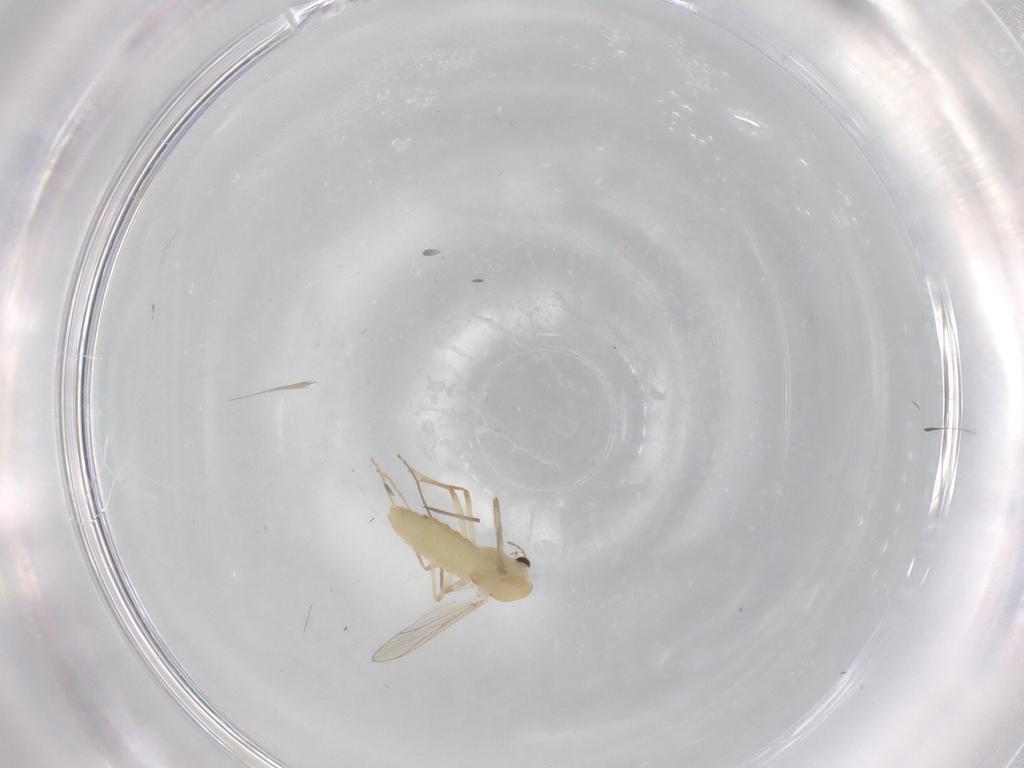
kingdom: Animalia
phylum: Arthropoda
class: Insecta
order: Diptera
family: Chironomidae
